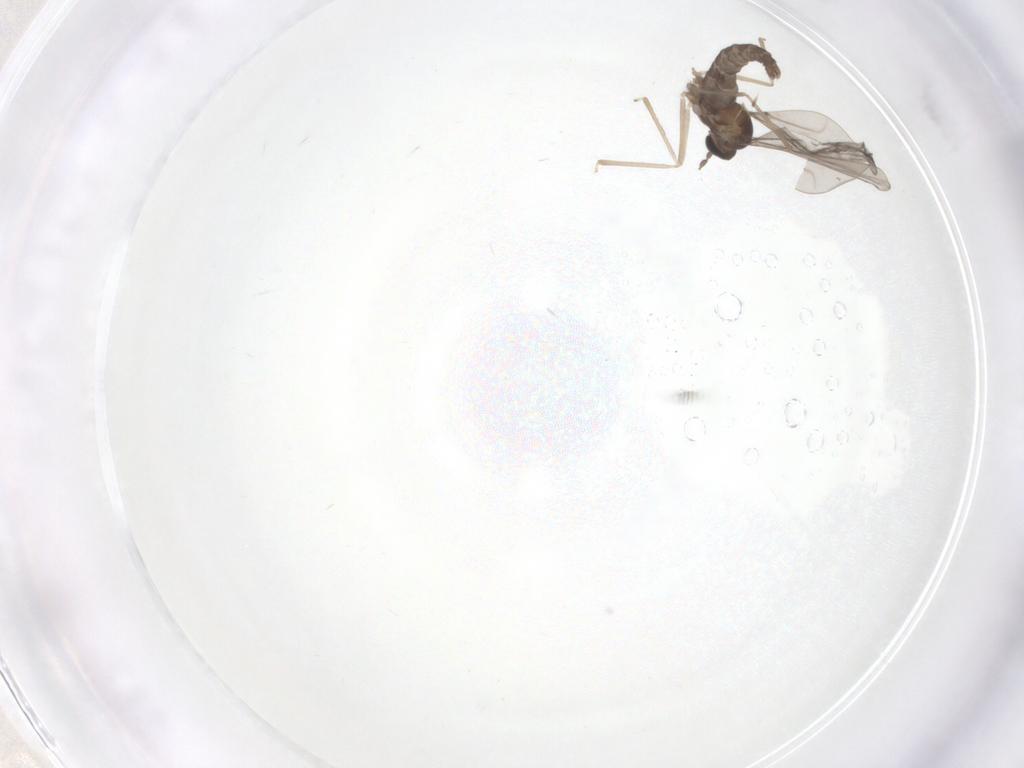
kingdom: Animalia
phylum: Arthropoda
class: Insecta
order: Diptera
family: Cecidomyiidae
